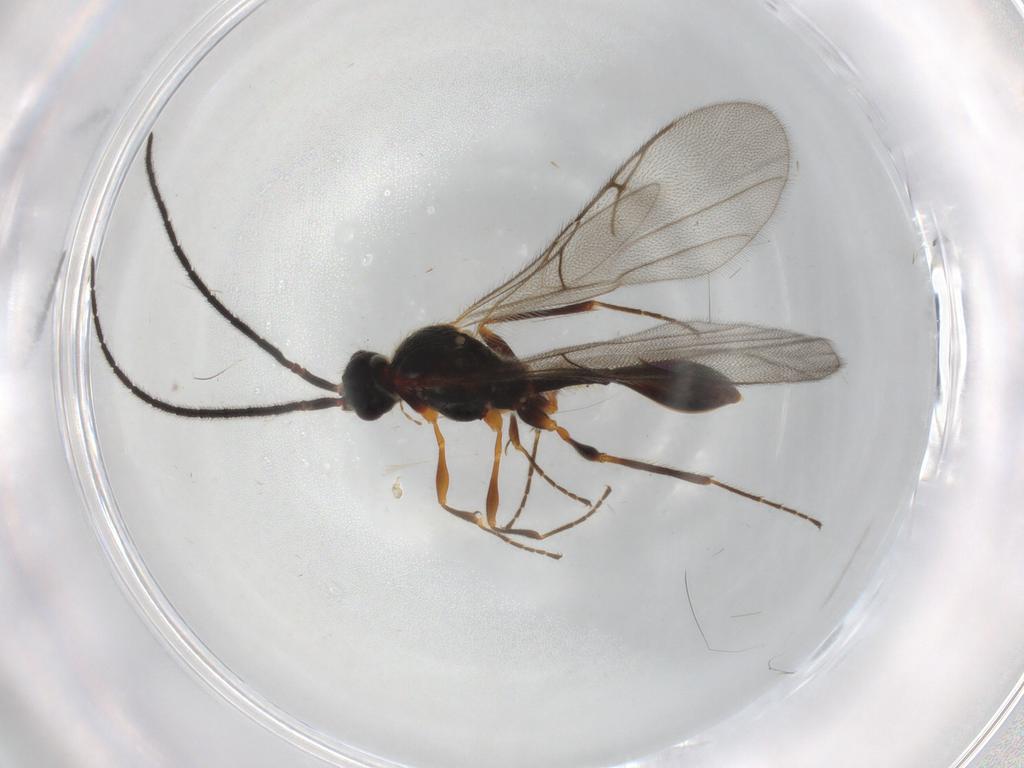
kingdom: Animalia
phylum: Arthropoda
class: Insecta
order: Hymenoptera
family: Diapriidae
